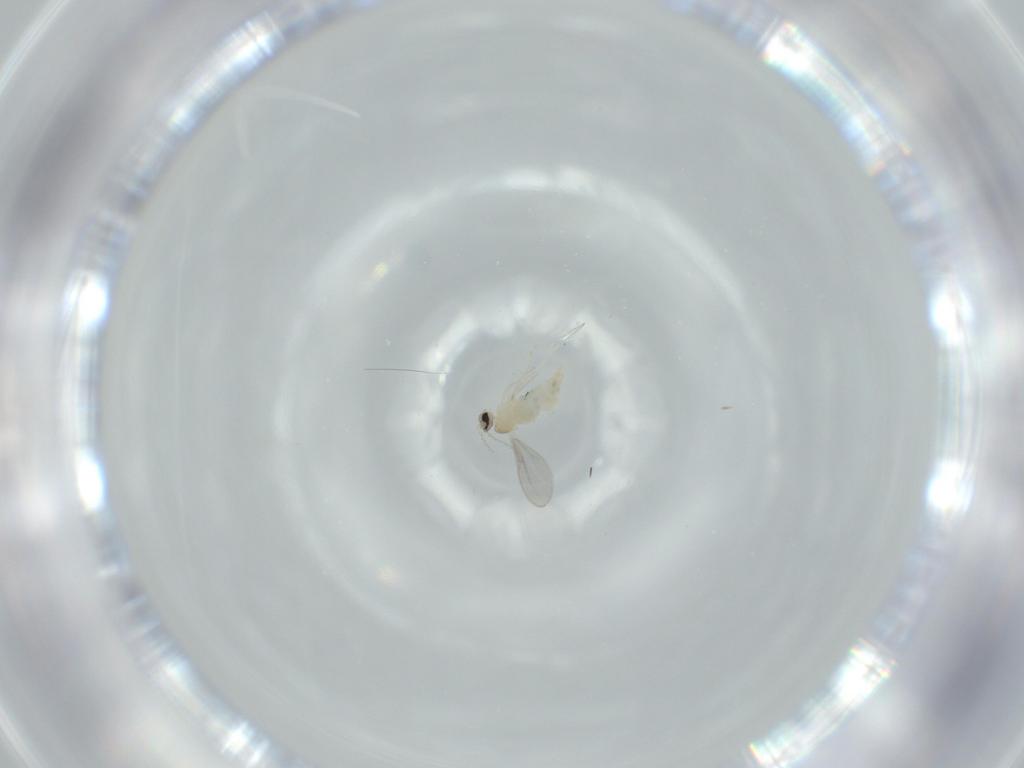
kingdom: Animalia
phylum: Arthropoda
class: Insecta
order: Diptera
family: Cecidomyiidae
